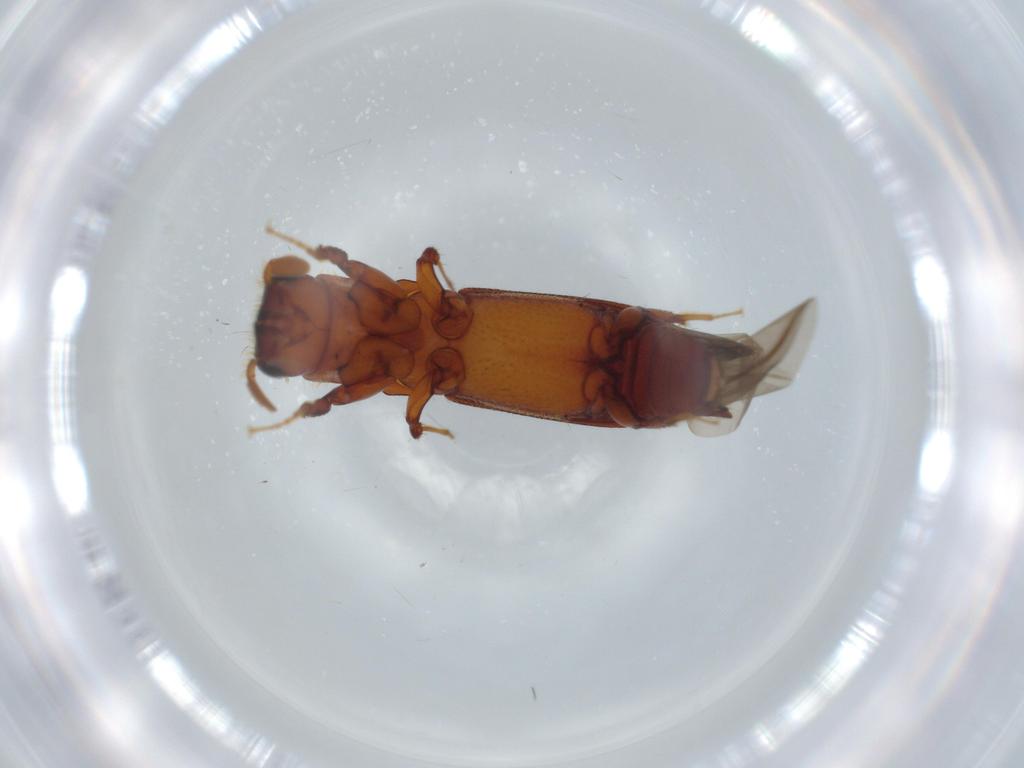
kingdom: Animalia
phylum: Arthropoda
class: Insecta
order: Coleoptera
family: Curculionidae
